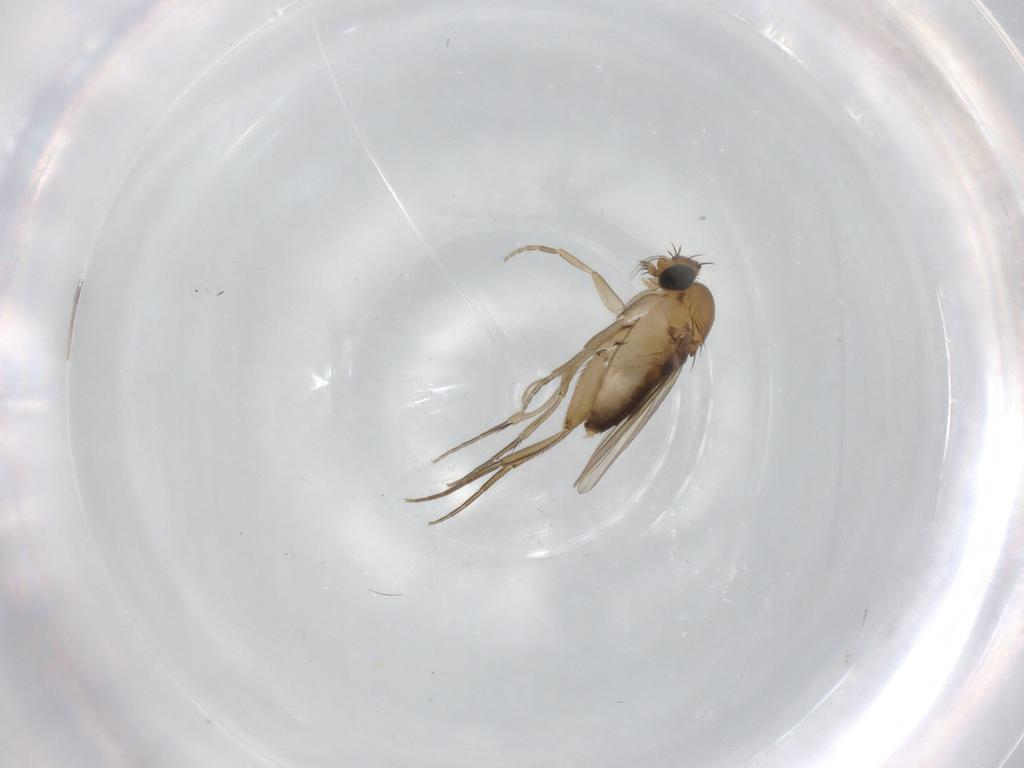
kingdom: Animalia
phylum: Arthropoda
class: Insecta
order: Diptera
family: Phoridae
